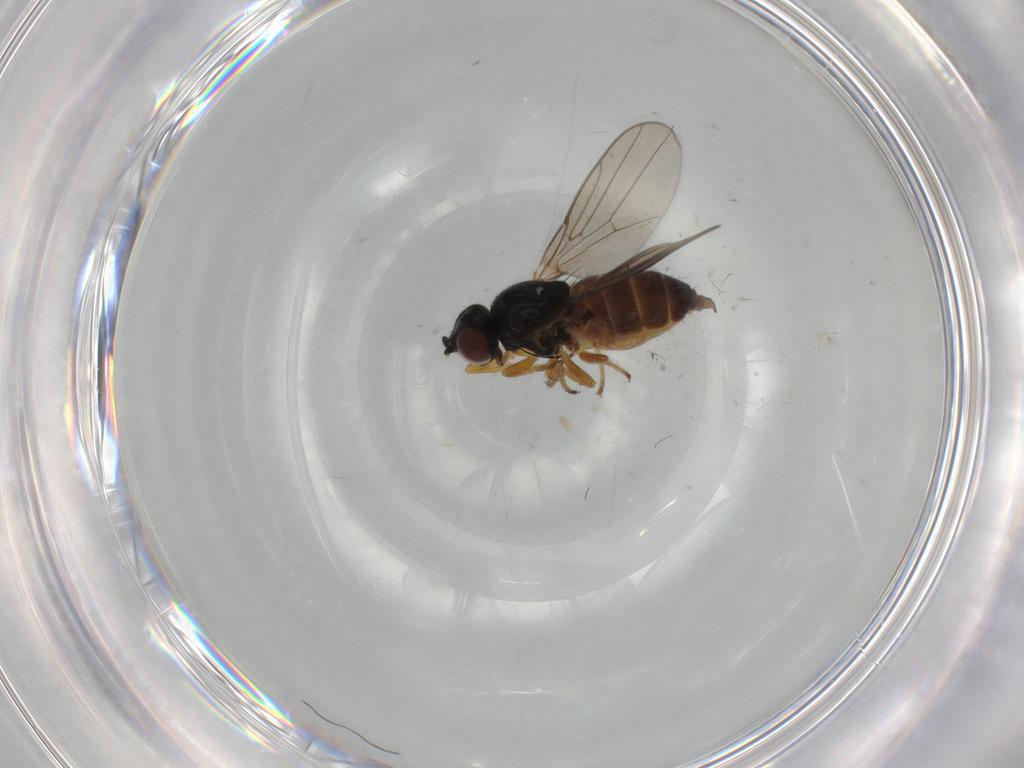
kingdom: Animalia
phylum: Arthropoda
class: Insecta
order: Diptera
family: Chloropidae
